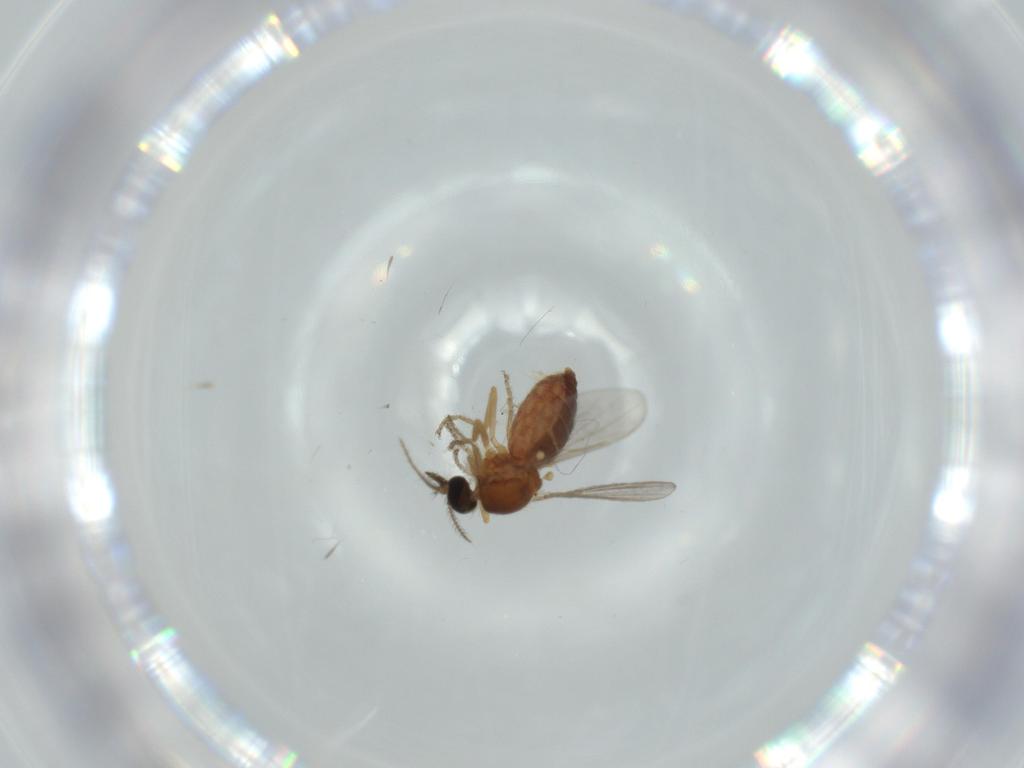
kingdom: Animalia
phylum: Arthropoda
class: Insecta
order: Diptera
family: Ceratopogonidae
